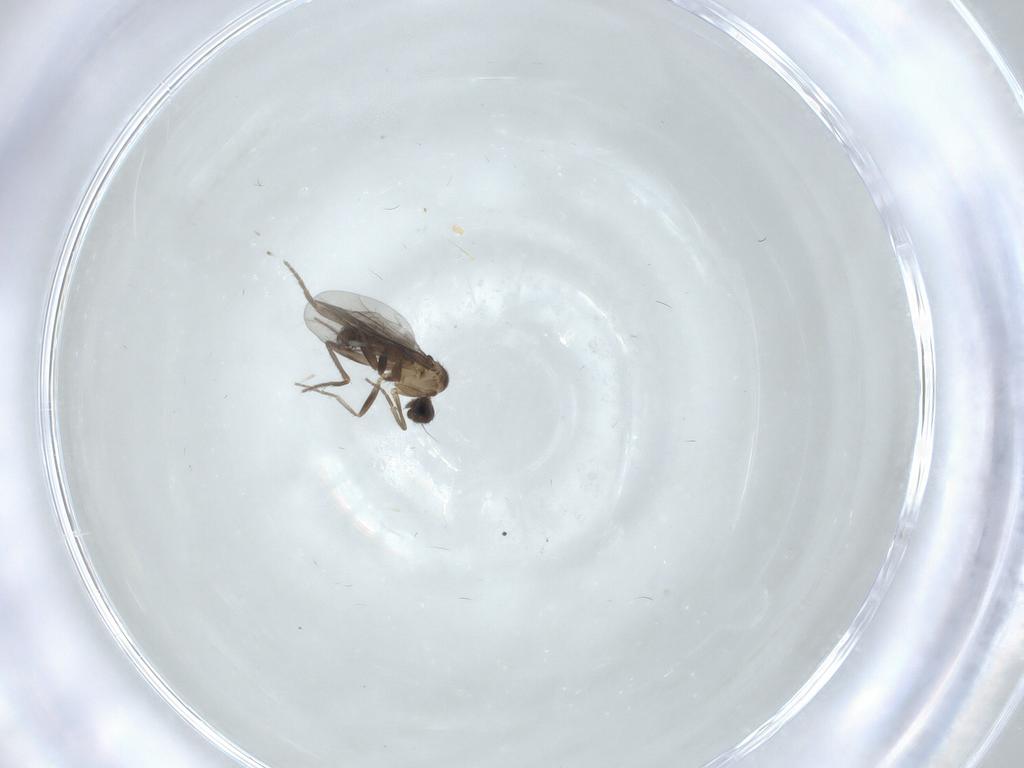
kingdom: Animalia
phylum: Arthropoda
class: Insecta
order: Diptera
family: Phoridae
